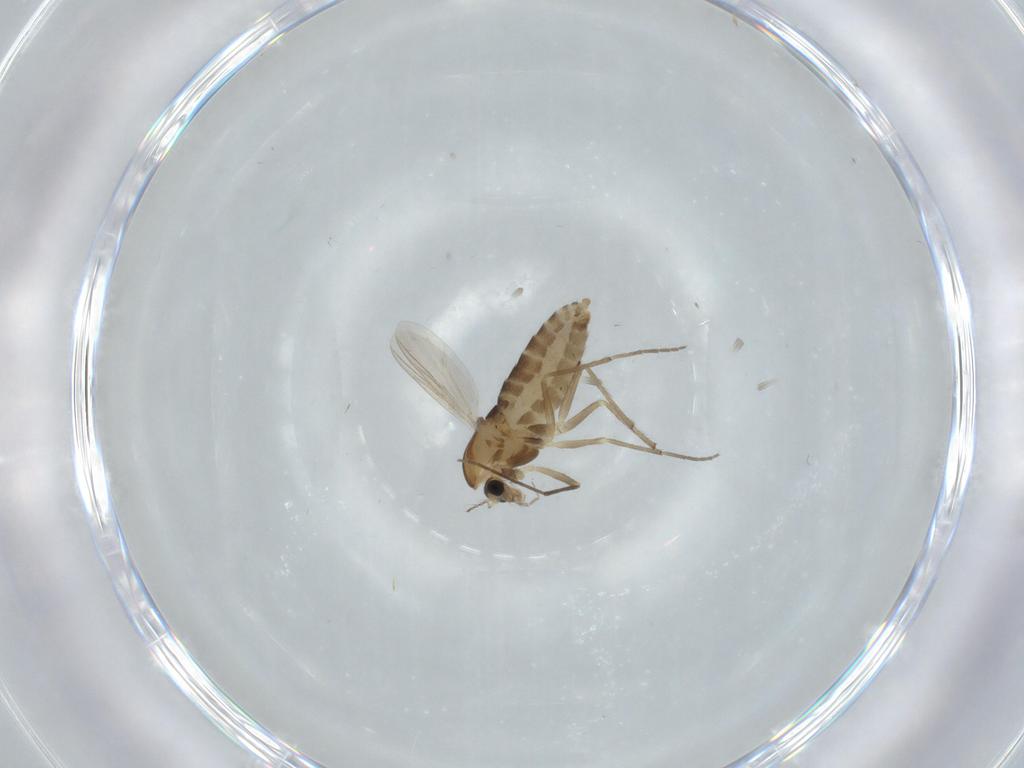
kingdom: Animalia
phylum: Arthropoda
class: Insecta
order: Diptera
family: Chironomidae
